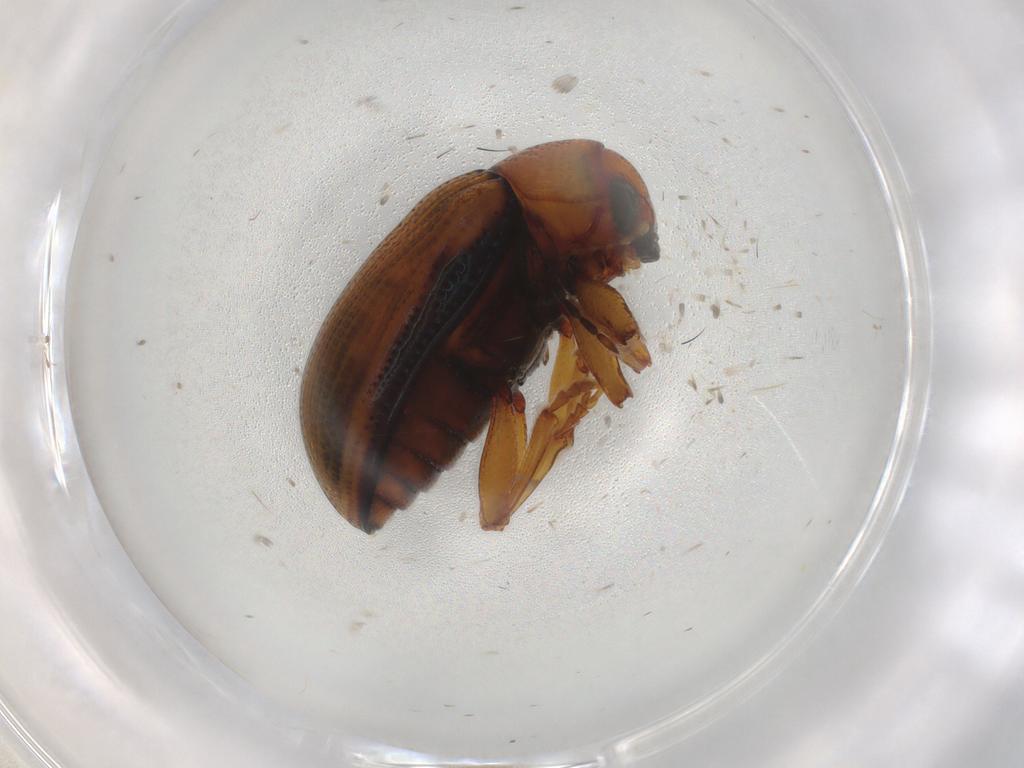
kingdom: Animalia
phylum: Arthropoda
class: Insecta
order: Coleoptera
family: Chrysomelidae
